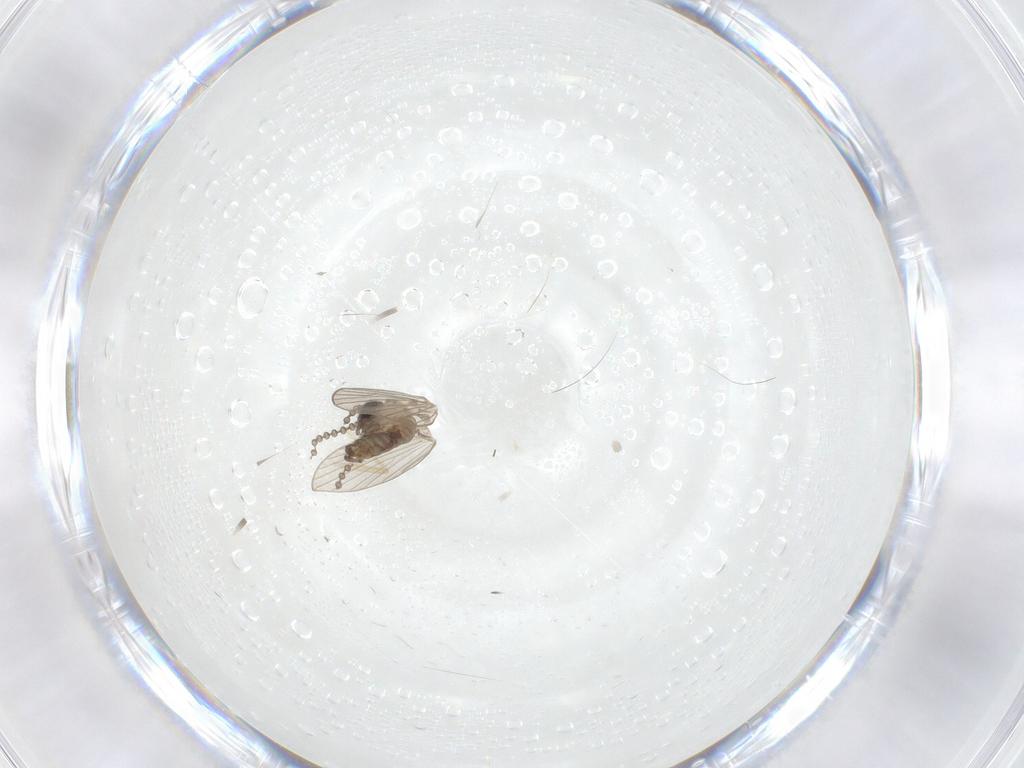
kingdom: Animalia
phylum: Arthropoda
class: Insecta
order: Diptera
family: Psychodidae
